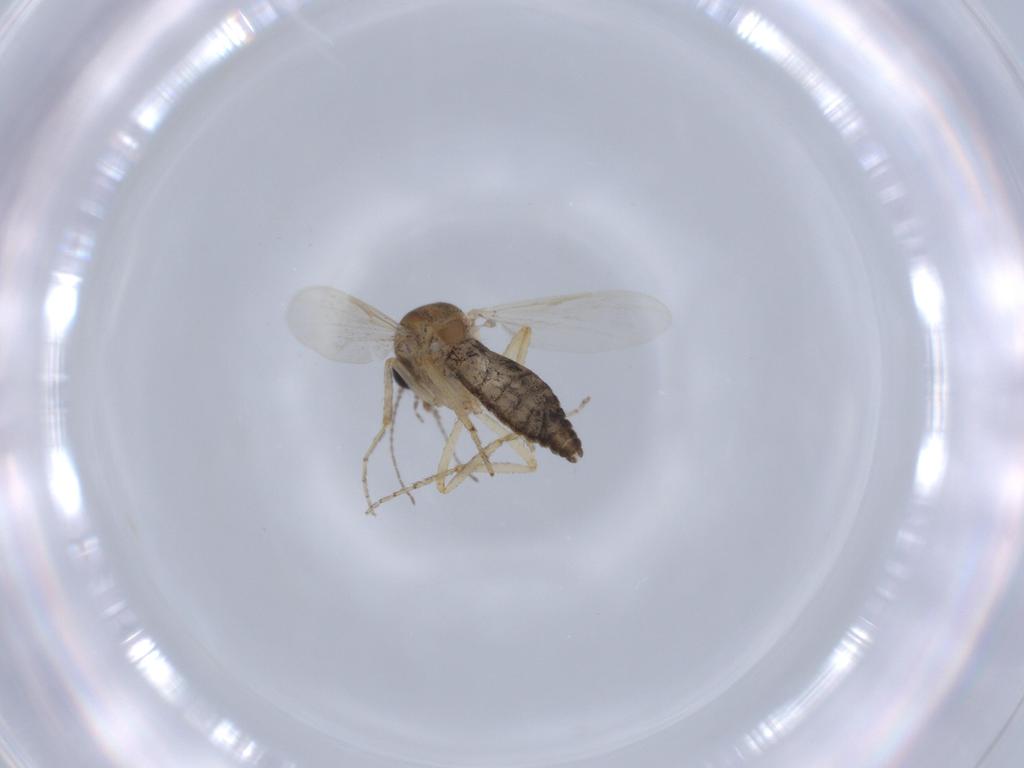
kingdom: Animalia
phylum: Arthropoda
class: Insecta
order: Diptera
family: Ceratopogonidae
